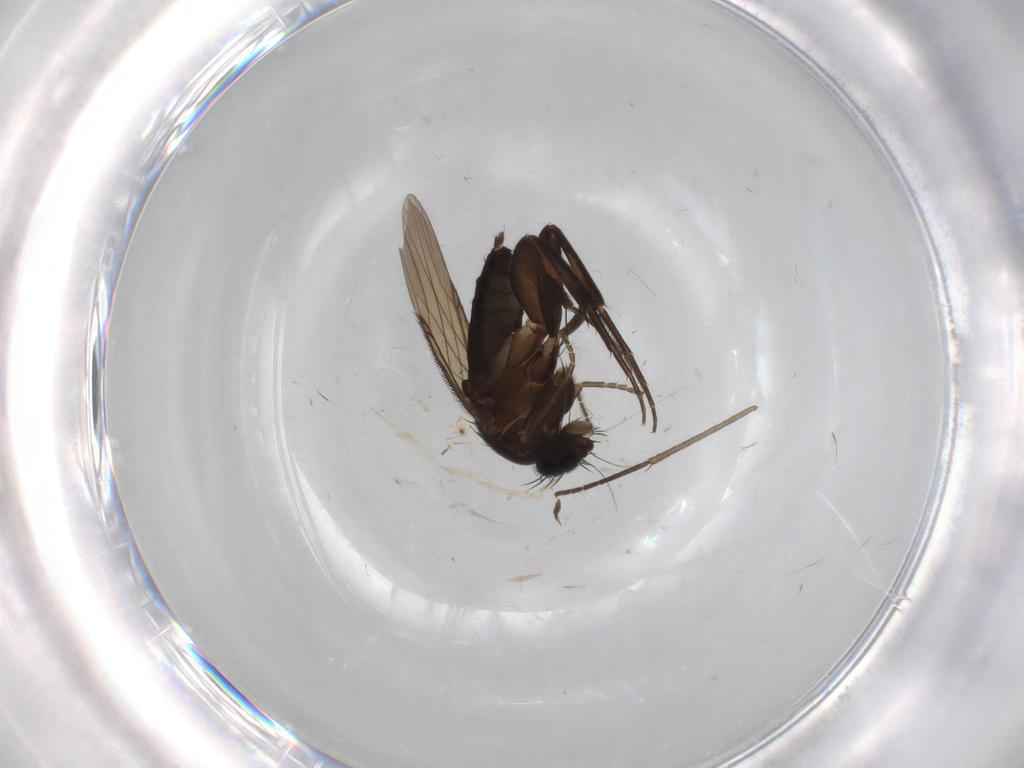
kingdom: Animalia
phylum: Arthropoda
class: Insecta
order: Diptera
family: Phoridae
